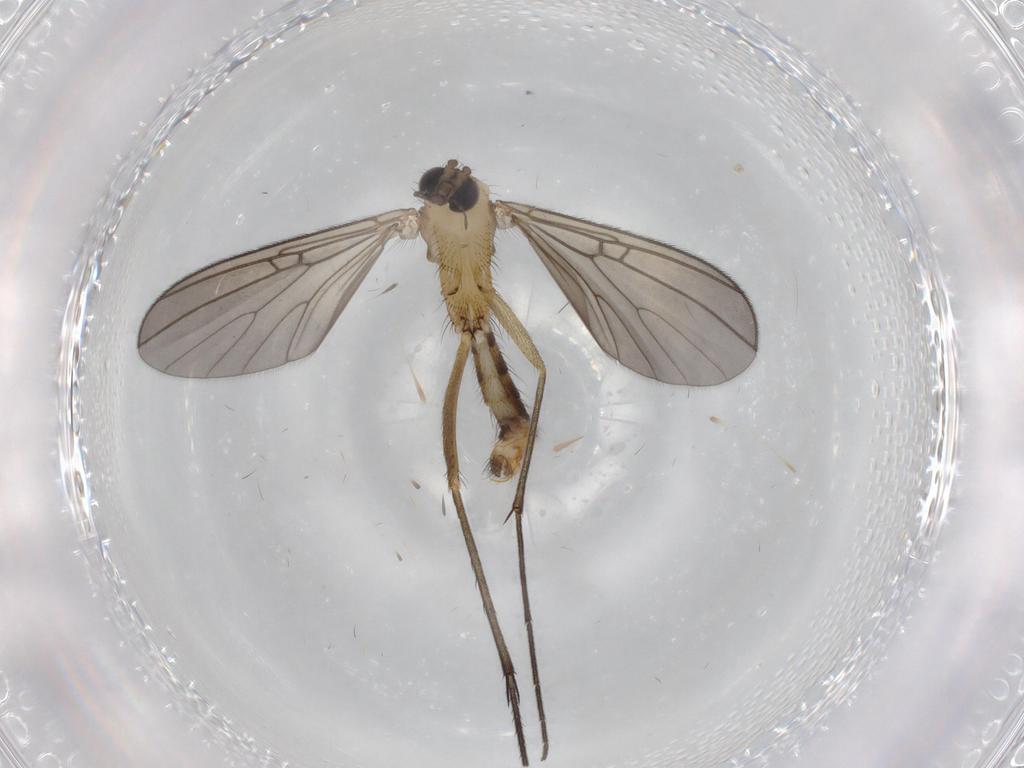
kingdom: Animalia
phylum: Arthropoda
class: Insecta
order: Diptera
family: Mycetophilidae
